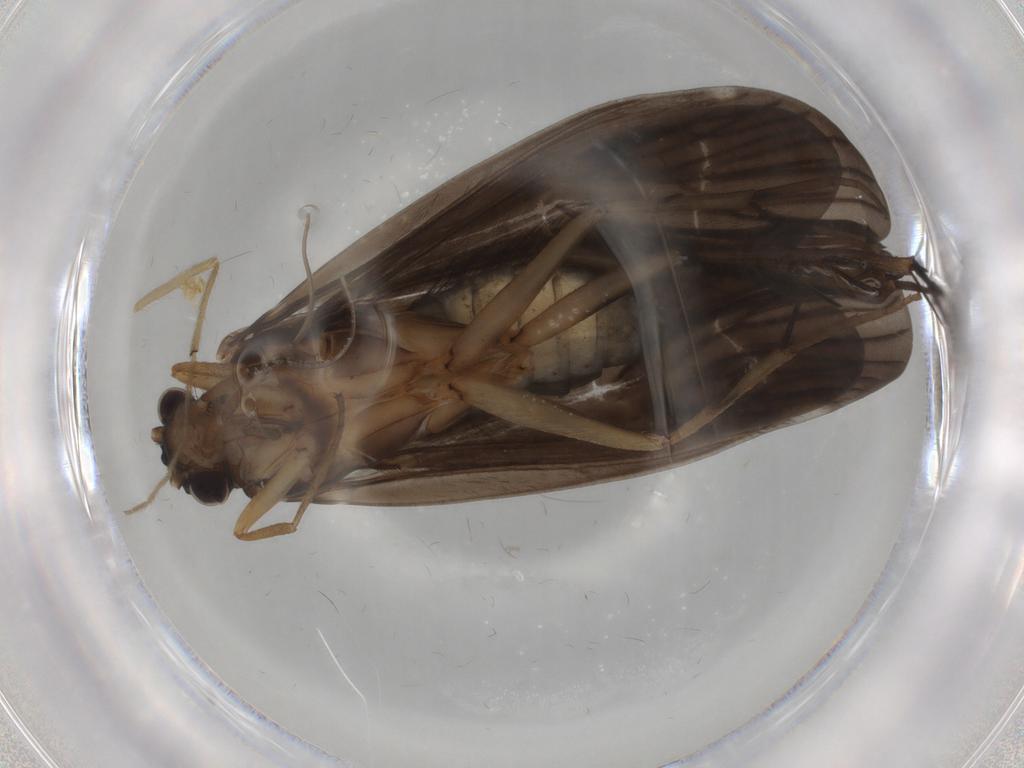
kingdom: Animalia
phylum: Arthropoda
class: Insecta
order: Trichoptera
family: Philopotamidae
